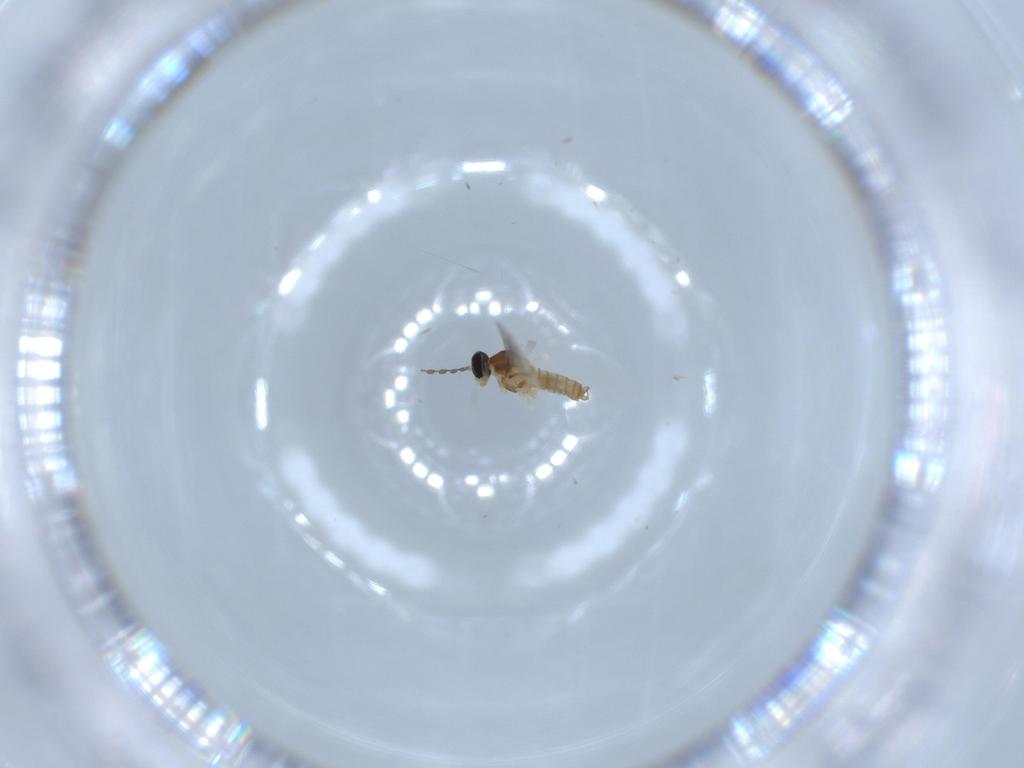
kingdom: Animalia
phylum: Arthropoda
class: Insecta
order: Diptera
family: Cecidomyiidae
